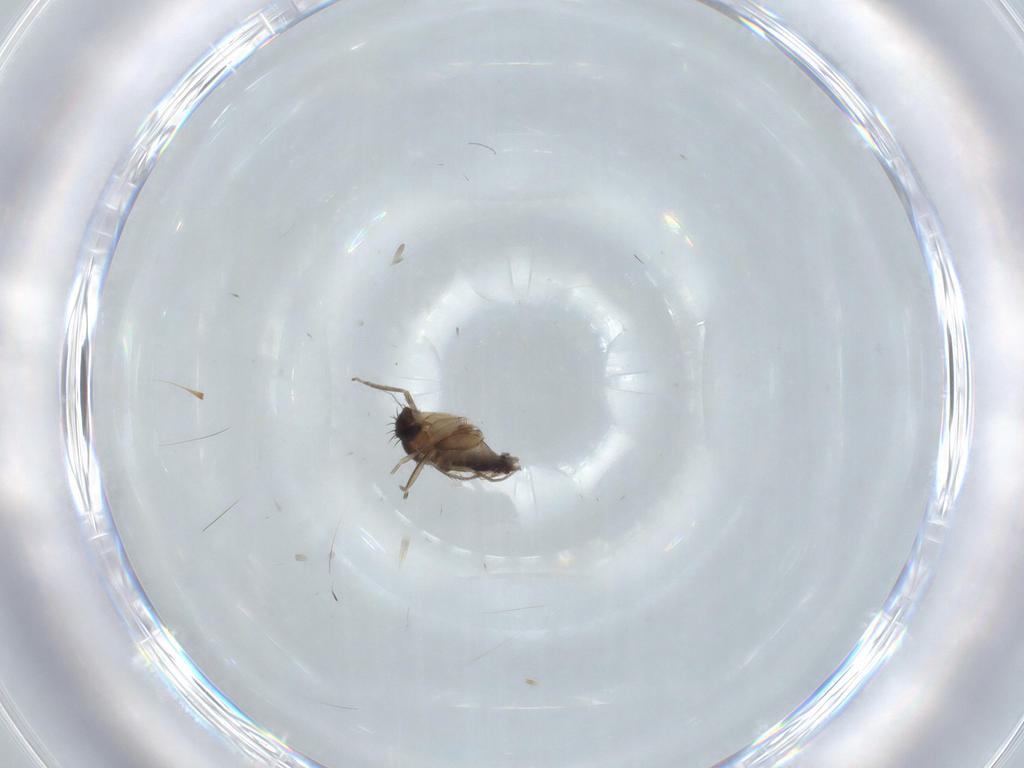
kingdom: Animalia
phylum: Arthropoda
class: Insecta
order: Diptera
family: Phoridae
